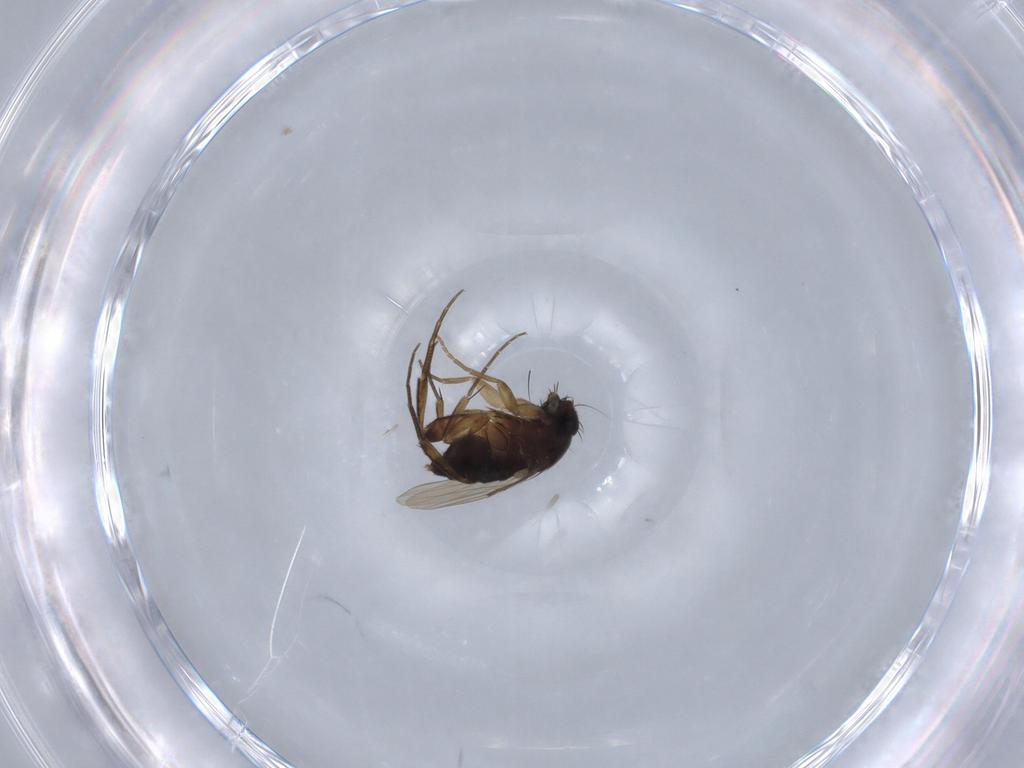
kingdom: Animalia
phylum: Arthropoda
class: Insecta
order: Diptera
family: Phoridae
